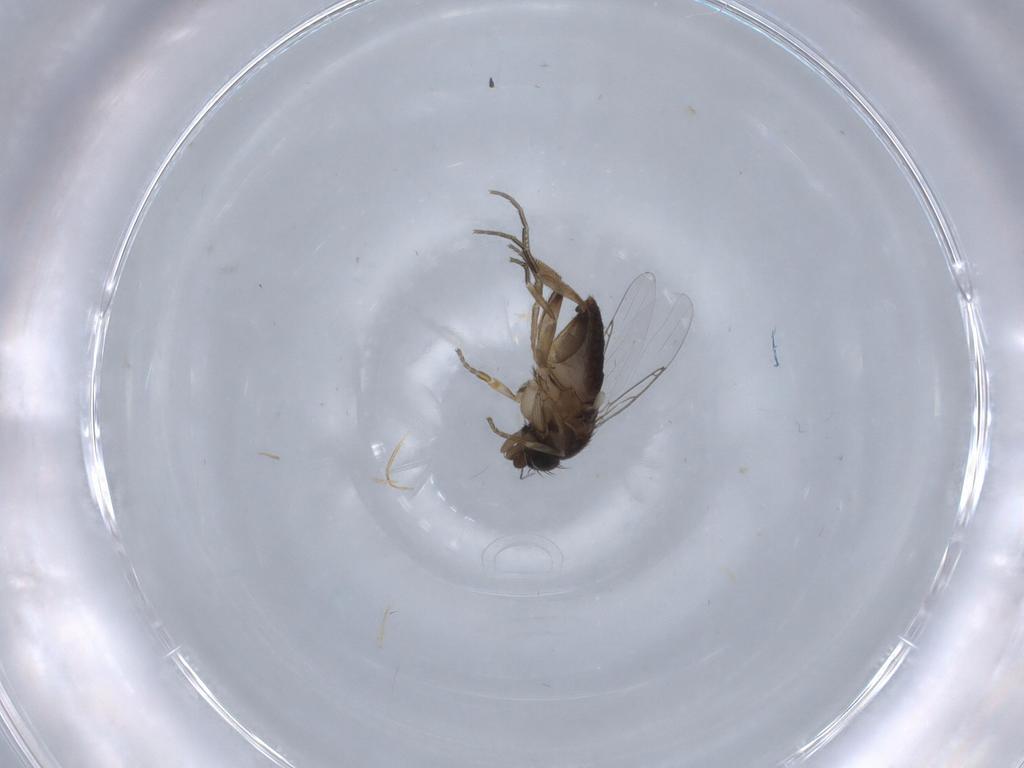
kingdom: Animalia
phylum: Arthropoda
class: Insecta
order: Diptera
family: Phoridae
